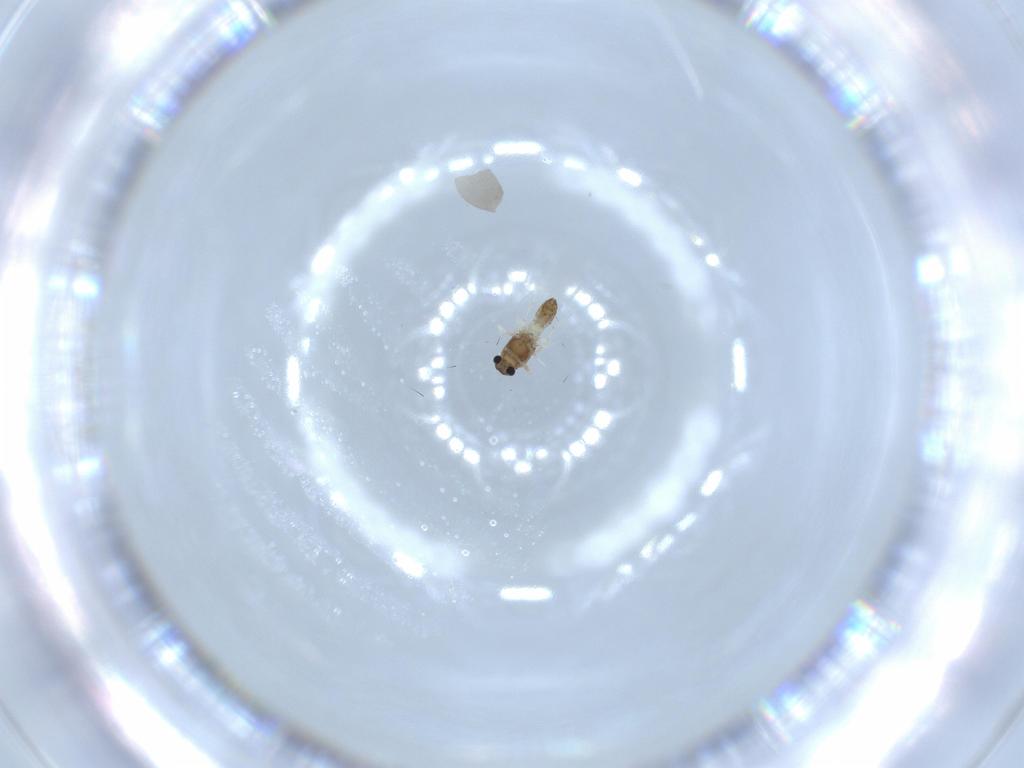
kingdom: Animalia
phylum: Arthropoda
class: Insecta
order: Diptera
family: Chironomidae
